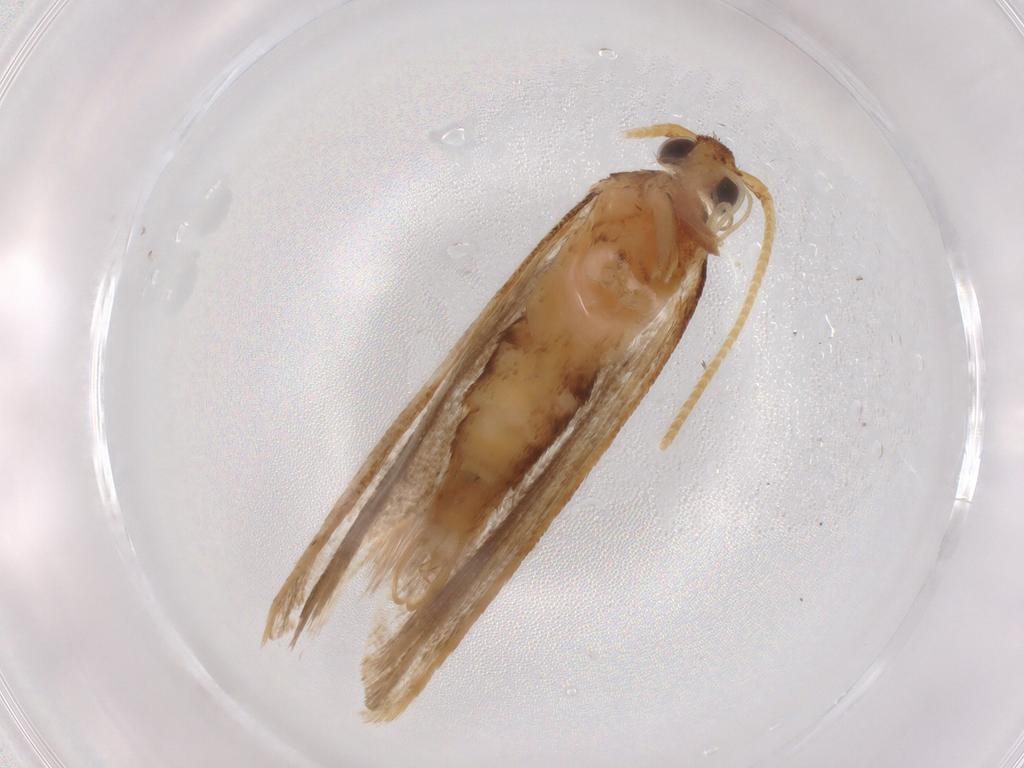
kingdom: Animalia
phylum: Arthropoda
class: Insecta
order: Lepidoptera
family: Lecithoceridae
